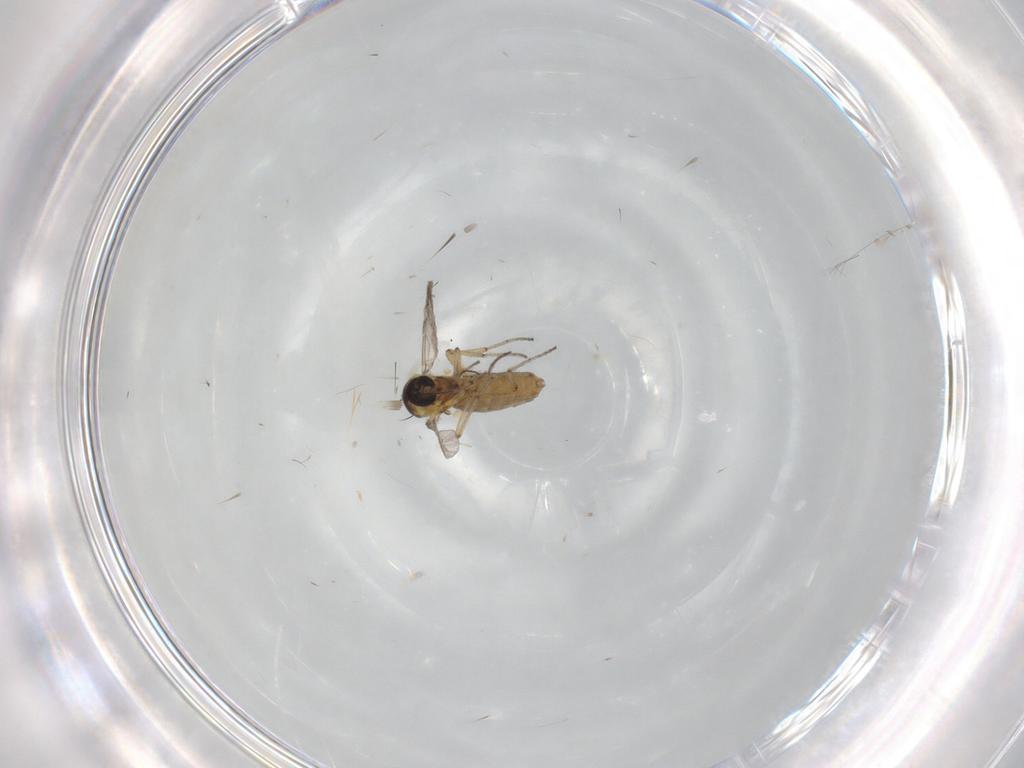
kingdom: Animalia
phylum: Arthropoda
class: Insecta
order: Diptera
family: Ceratopogonidae
